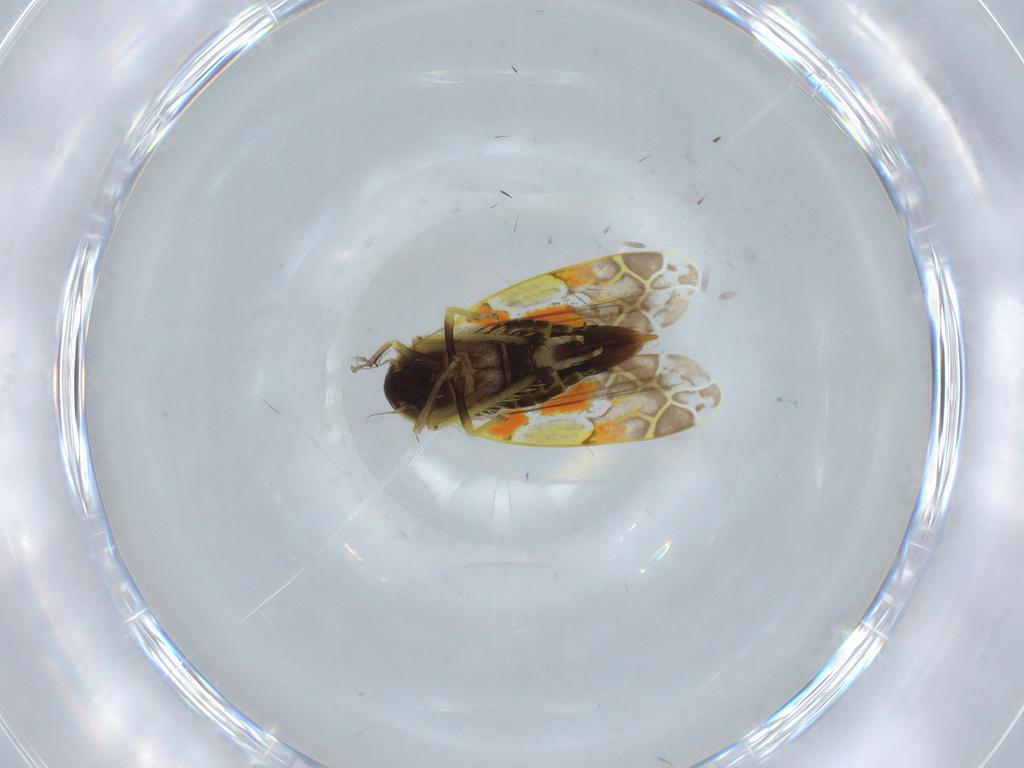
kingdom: Animalia
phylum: Arthropoda
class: Insecta
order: Hemiptera
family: Cicadellidae
